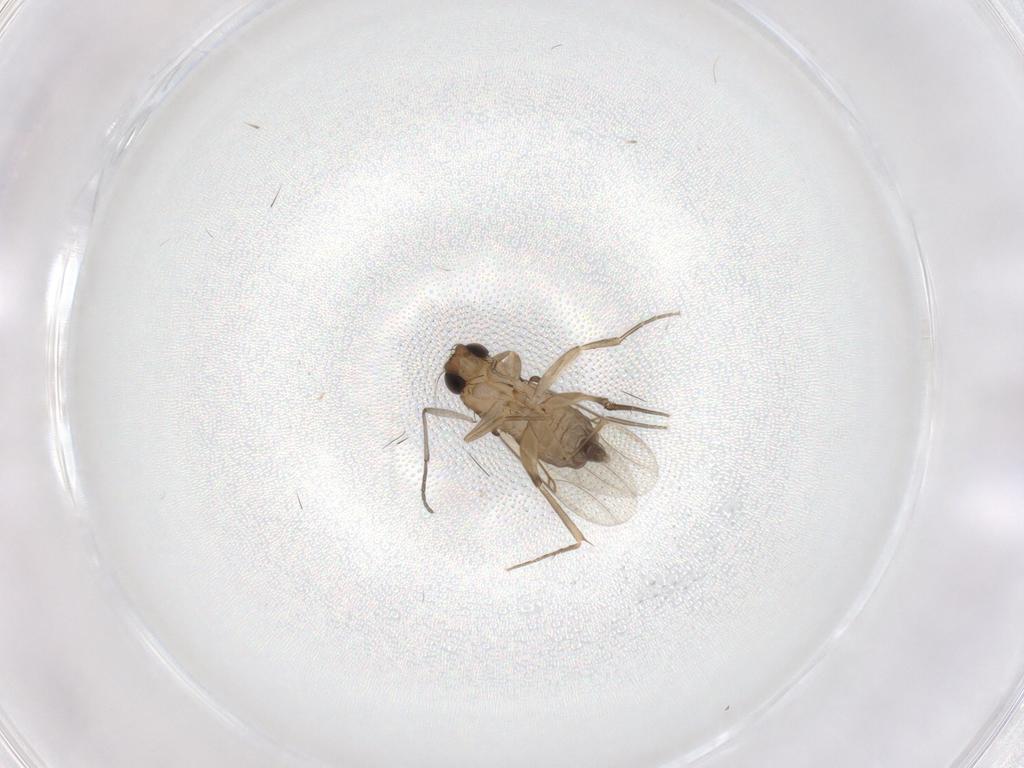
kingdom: Animalia
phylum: Arthropoda
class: Insecta
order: Diptera
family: Phoridae
